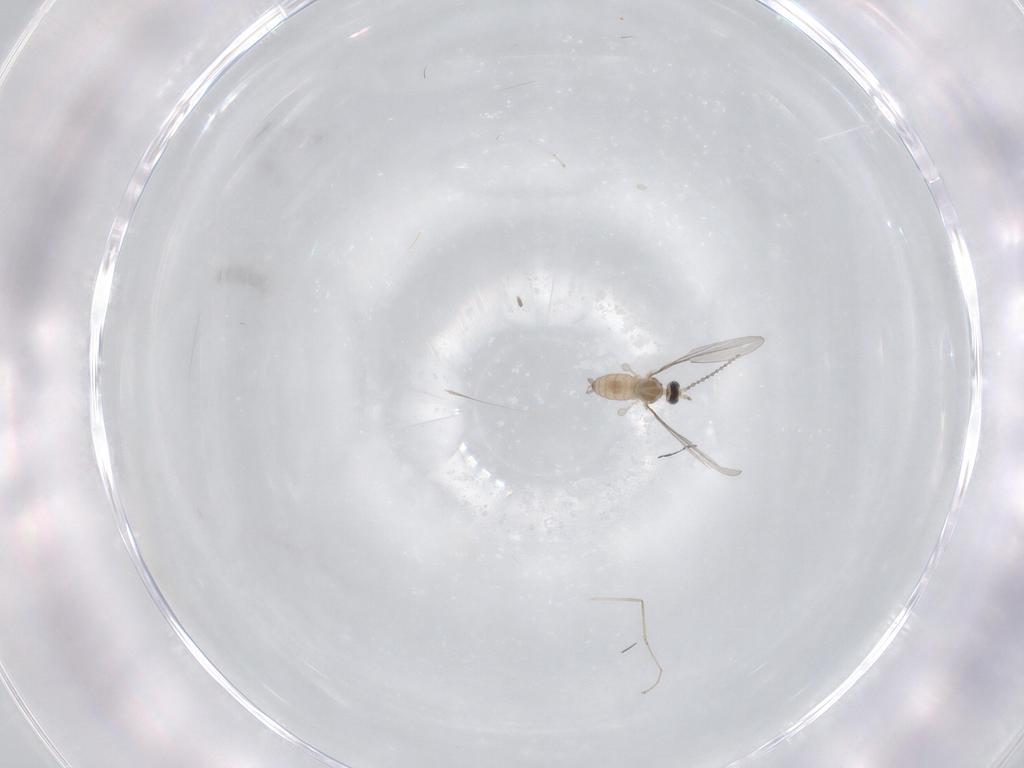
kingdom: Animalia
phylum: Arthropoda
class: Insecta
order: Diptera
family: Cecidomyiidae
